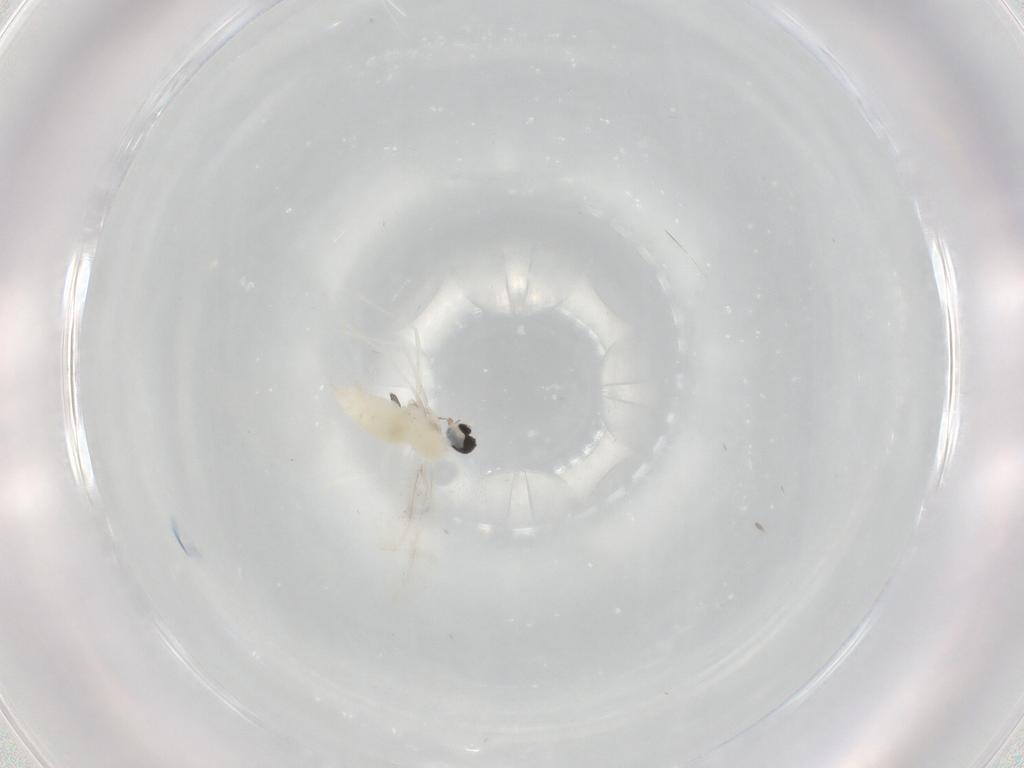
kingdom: Animalia
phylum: Arthropoda
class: Insecta
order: Diptera
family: Cecidomyiidae
